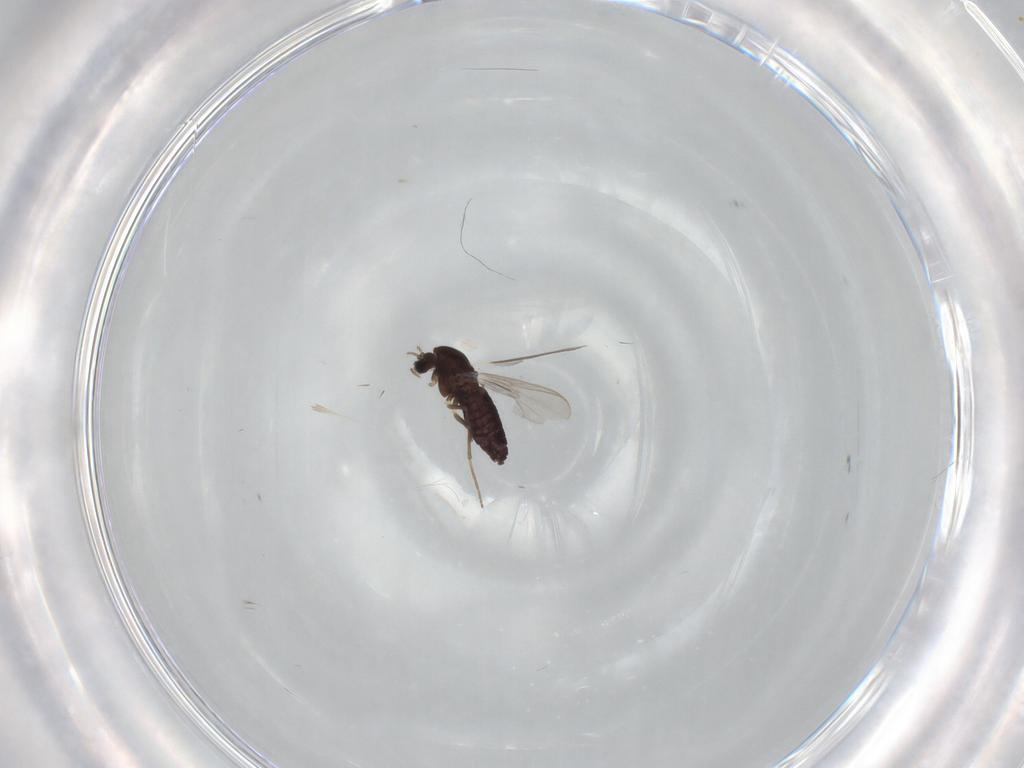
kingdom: Animalia
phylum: Arthropoda
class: Insecta
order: Diptera
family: Chironomidae
